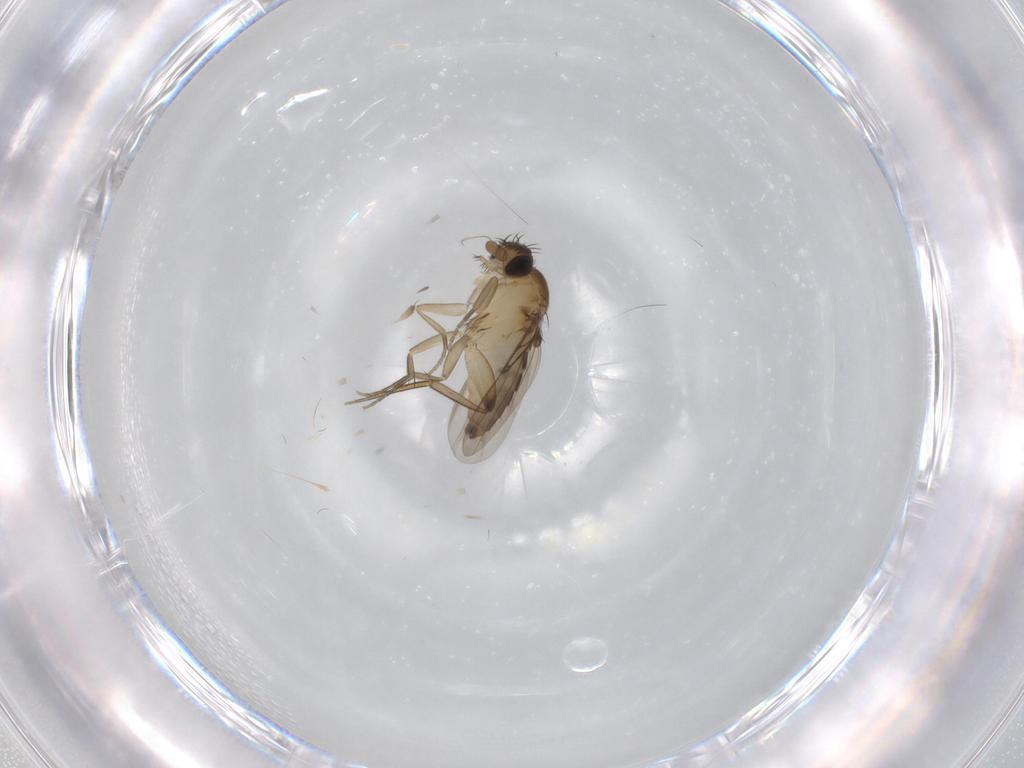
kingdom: Animalia
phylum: Arthropoda
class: Insecta
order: Diptera
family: Phoridae
